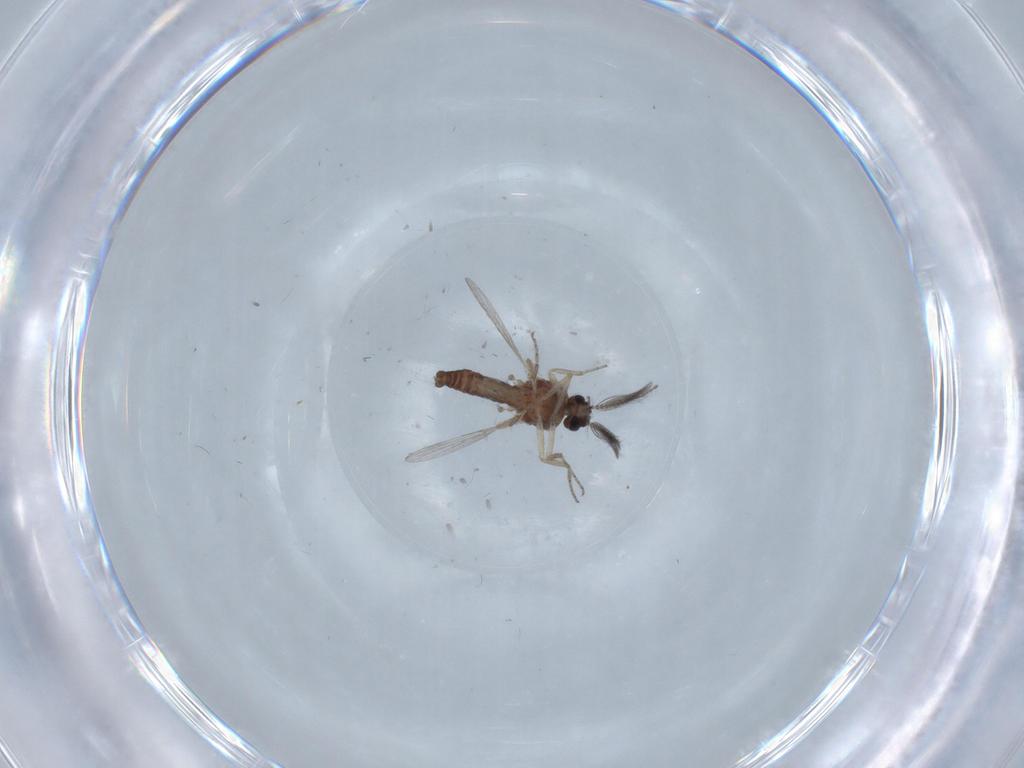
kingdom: Animalia
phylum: Arthropoda
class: Insecta
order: Diptera
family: Ceratopogonidae
